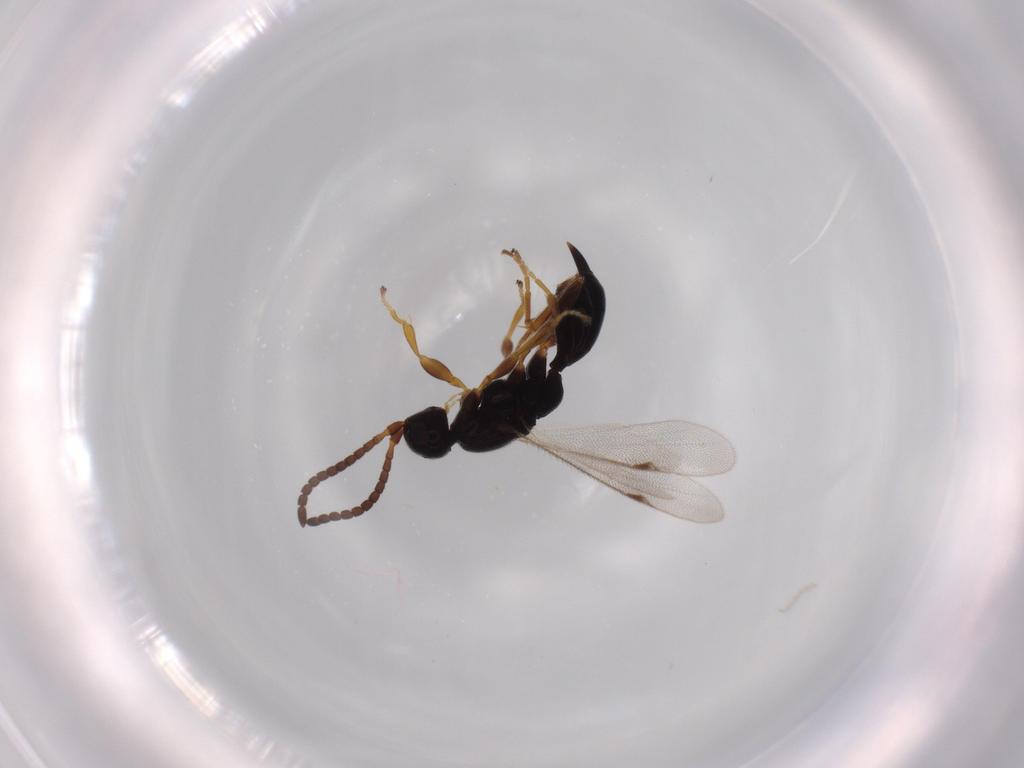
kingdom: Animalia
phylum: Arthropoda
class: Insecta
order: Hymenoptera
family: Proctotrupidae
